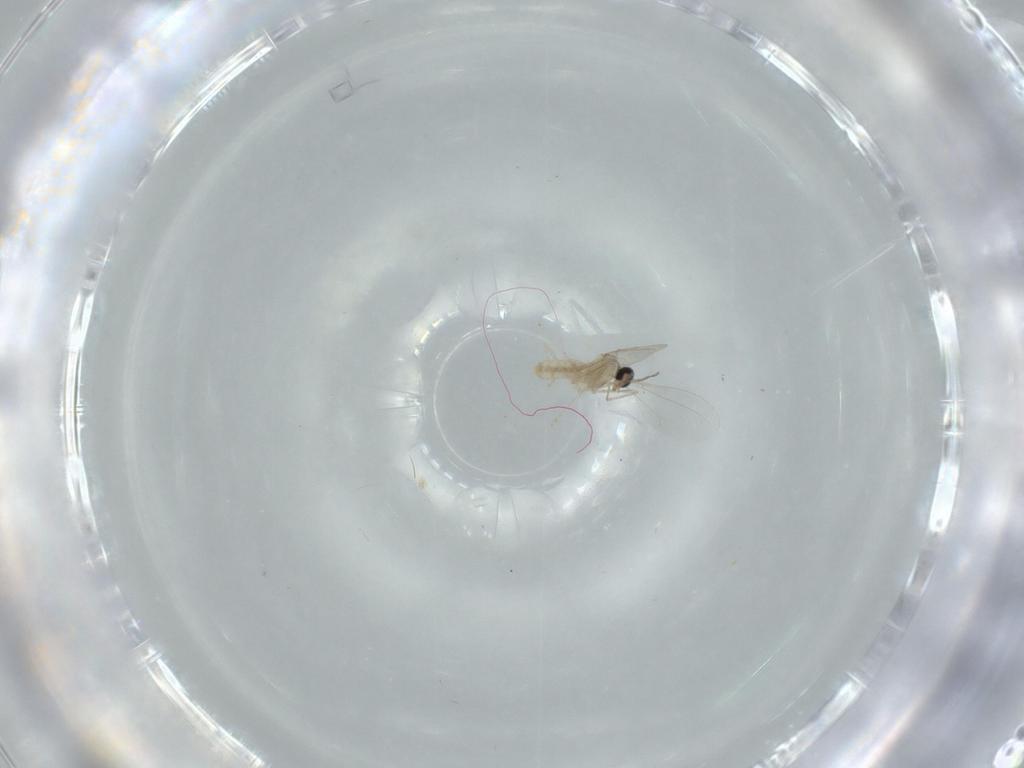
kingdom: Animalia
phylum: Arthropoda
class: Insecta
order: Diptera
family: Cecidomyiidae
